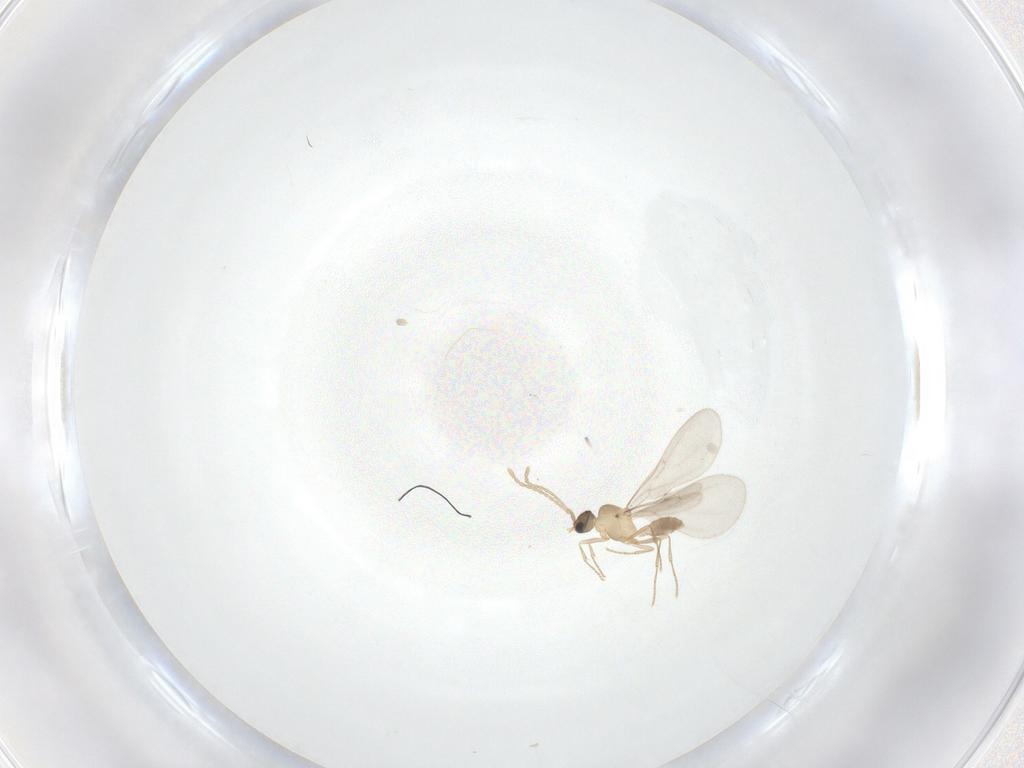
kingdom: Animalia
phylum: Arthropoda
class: Insecta
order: Hymenoptera
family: Formicidae
